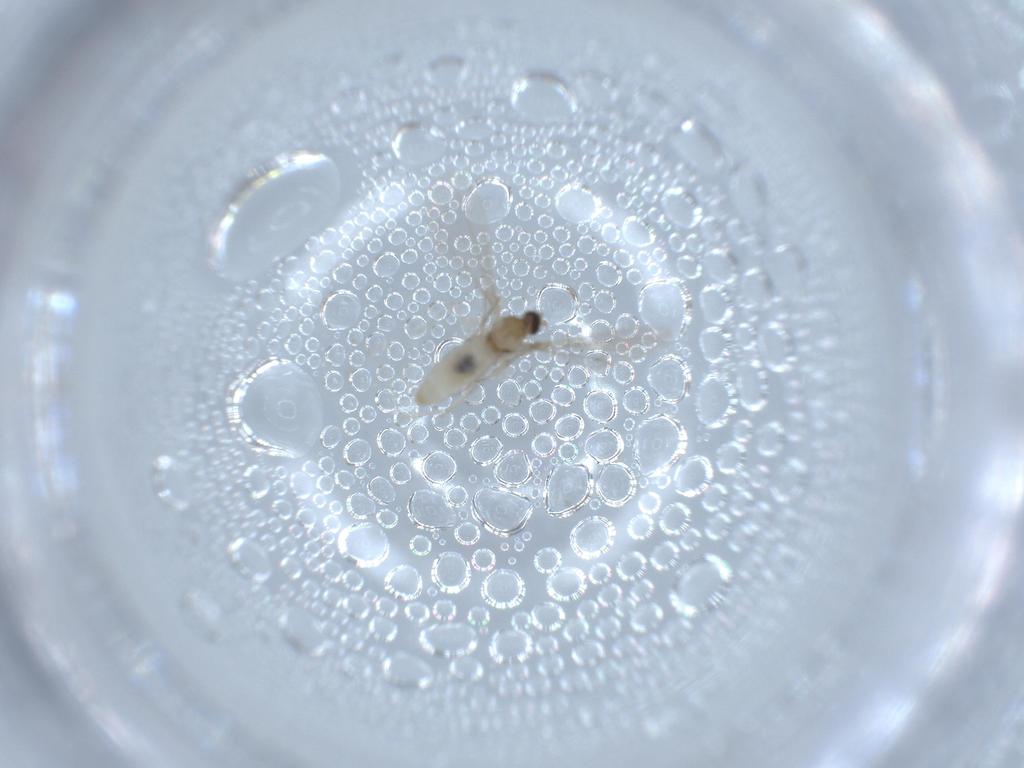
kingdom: Animalia
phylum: Arthropoda
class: Insecta
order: Diptera
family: Cecidomyiidae
